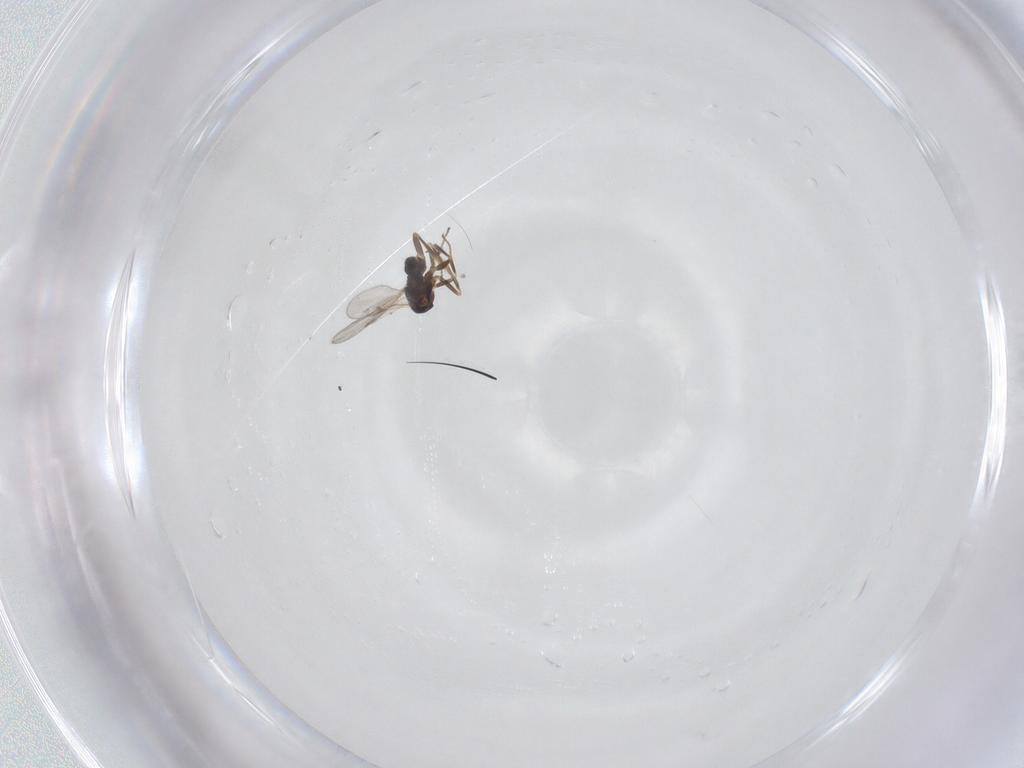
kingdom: Animalia
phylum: Arthropoda
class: Insecta
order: Hymenoptera
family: Encyrtidae
